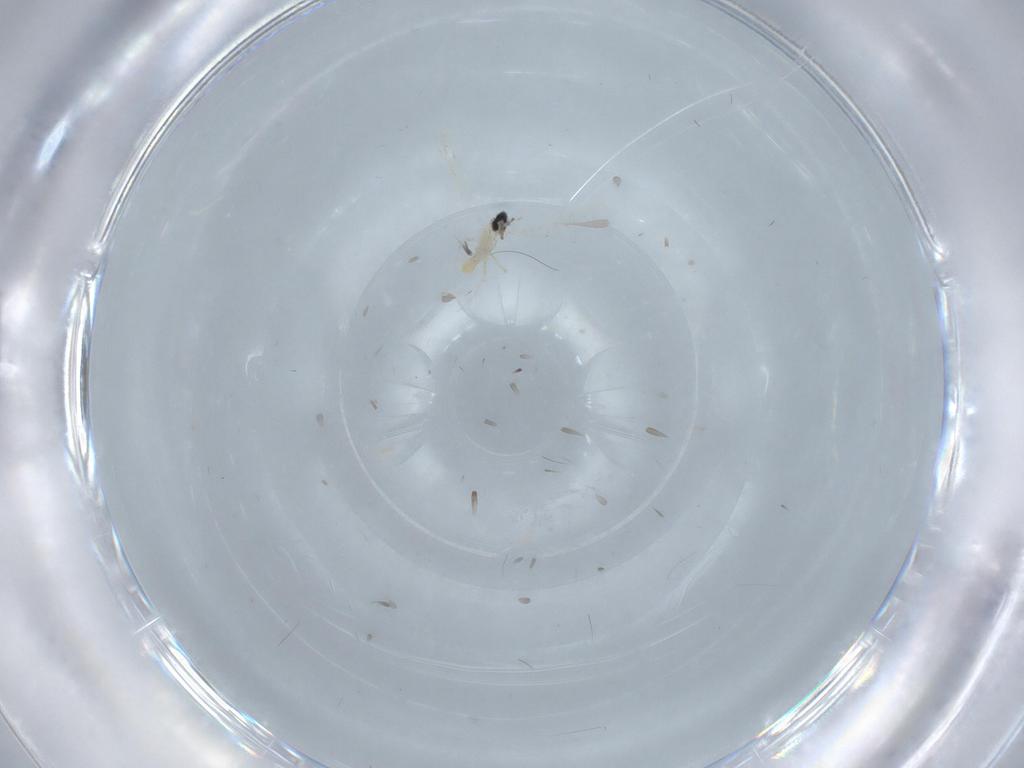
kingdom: Animalia
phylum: Arthropoda
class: Insecta
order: Diptera
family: Cecidomyiidae
